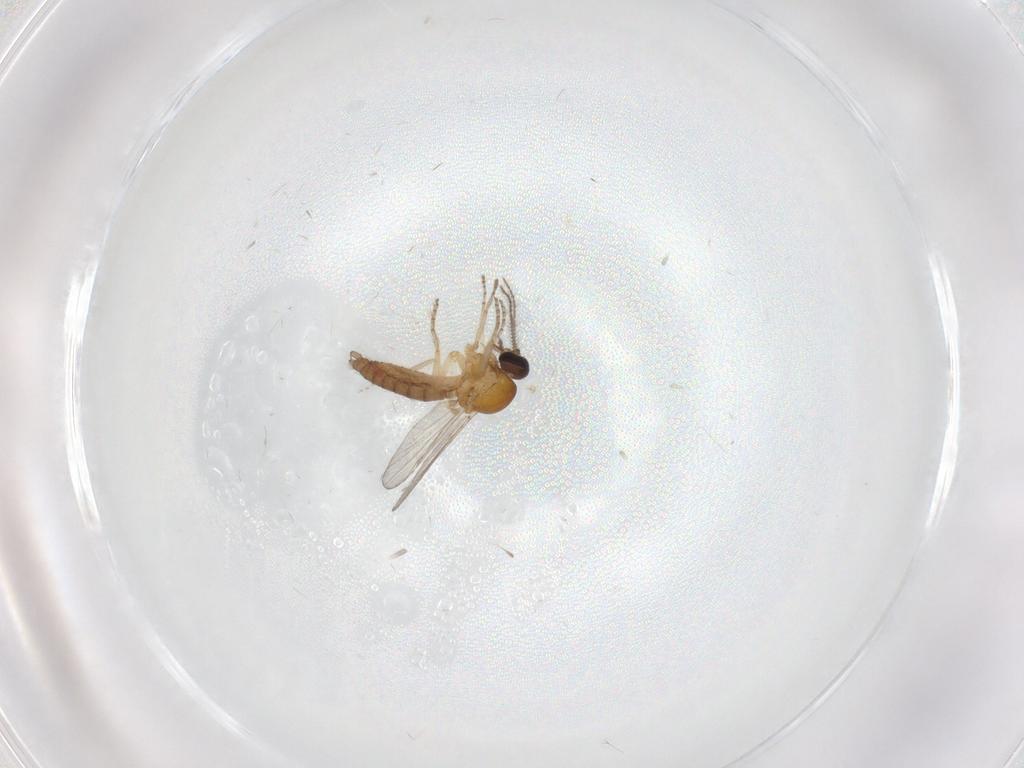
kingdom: Animalia
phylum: Arthropoda
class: Insecta
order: Diptera
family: Ceratopogonidae
